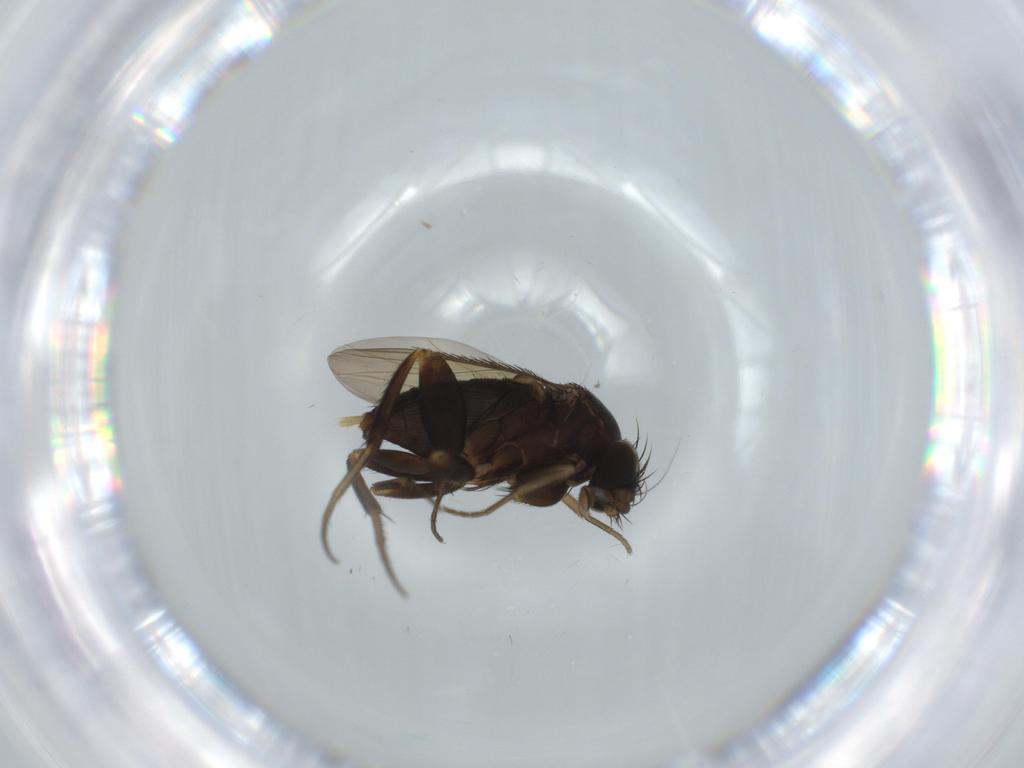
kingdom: Animalia
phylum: Arthropoda
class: Insecta
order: Diptera
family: Phoridae
